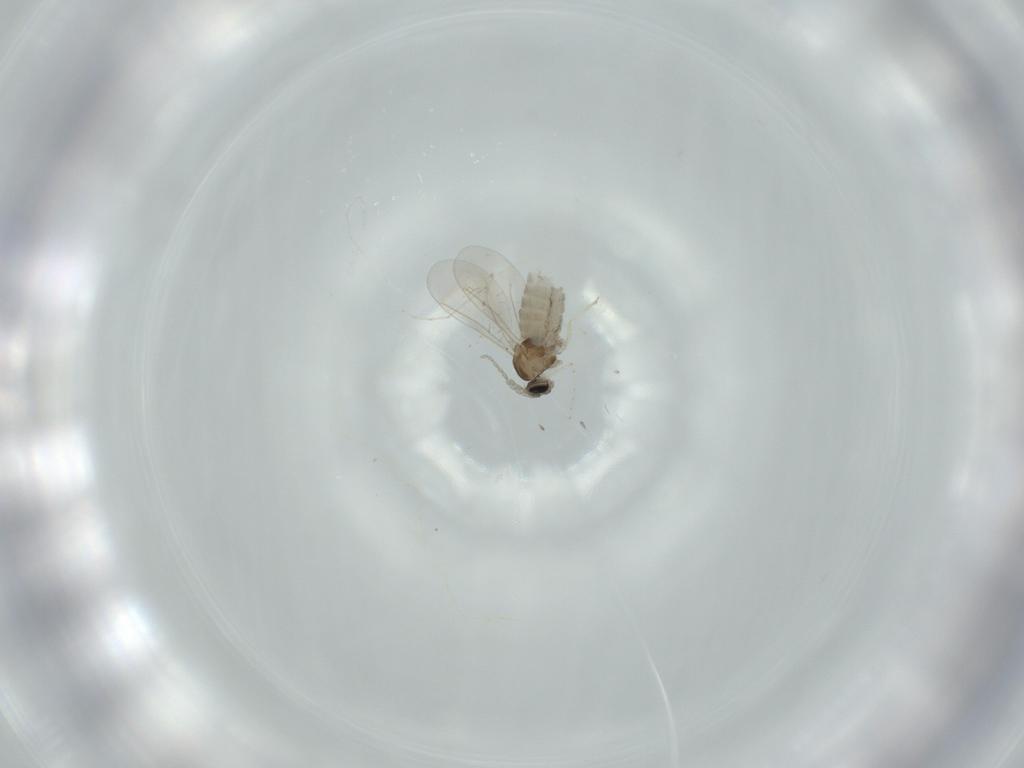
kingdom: Animalia
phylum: Arthropoda
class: Insecta
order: Diptera
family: Cecidomyiidae
